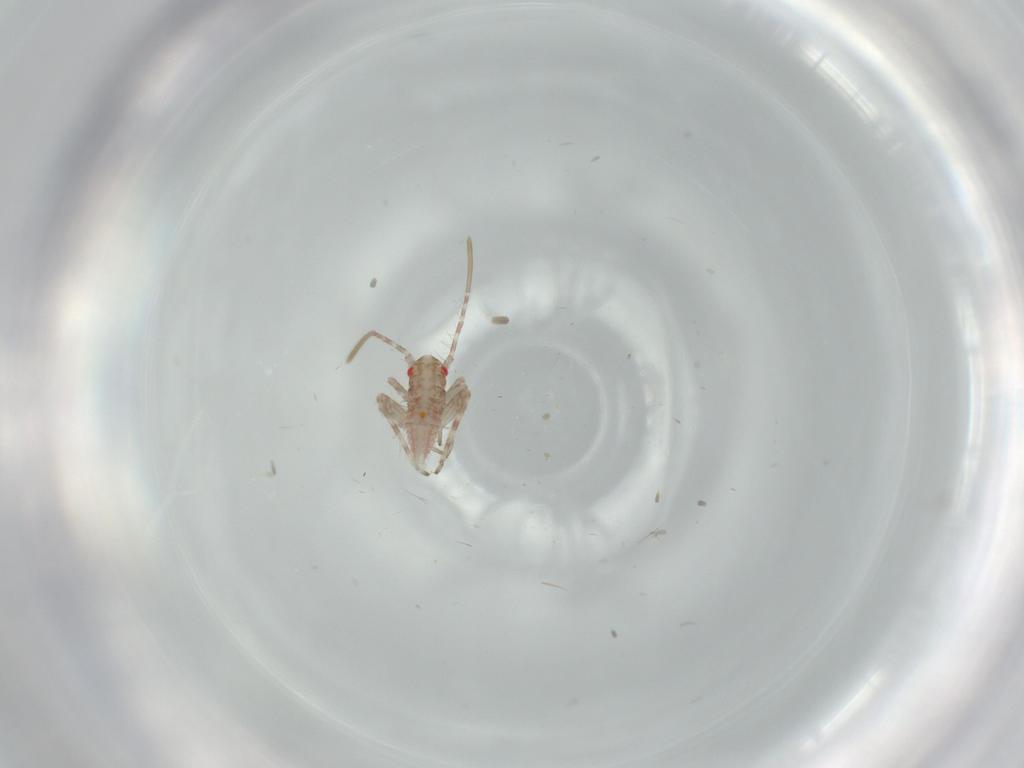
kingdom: Animalia
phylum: Arthropoda
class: Insecta
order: Hemiptera
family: Miridae
